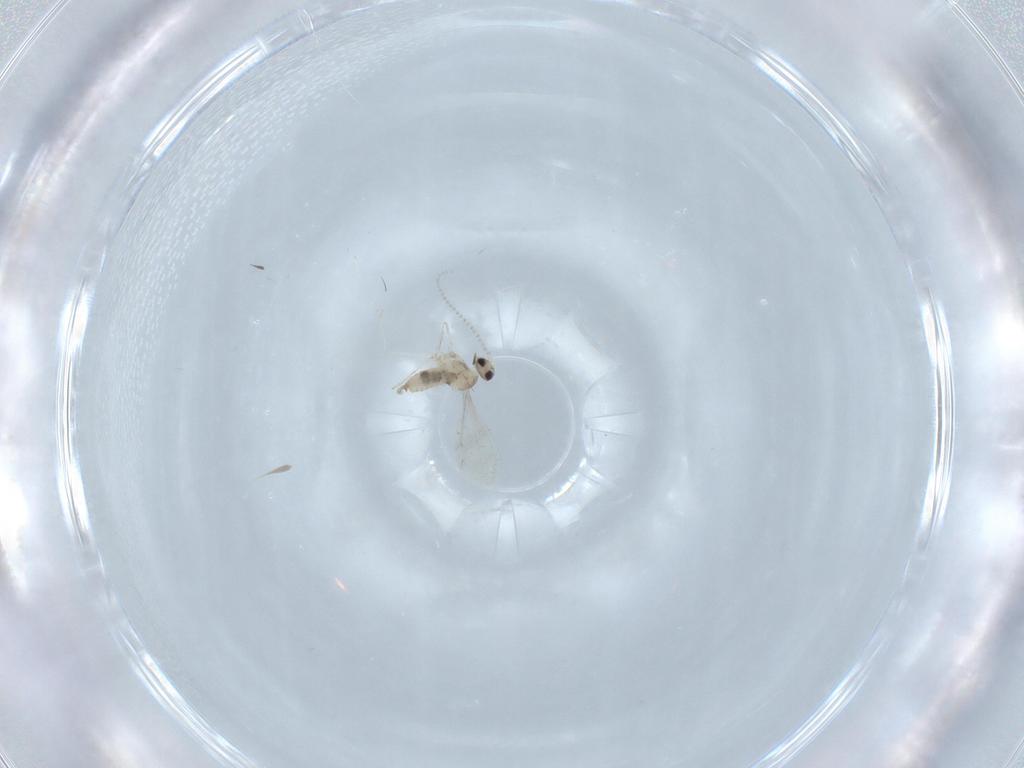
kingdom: Animalia
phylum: Arthropoda
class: Insecta
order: Diptera
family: Cecidomyiidae
